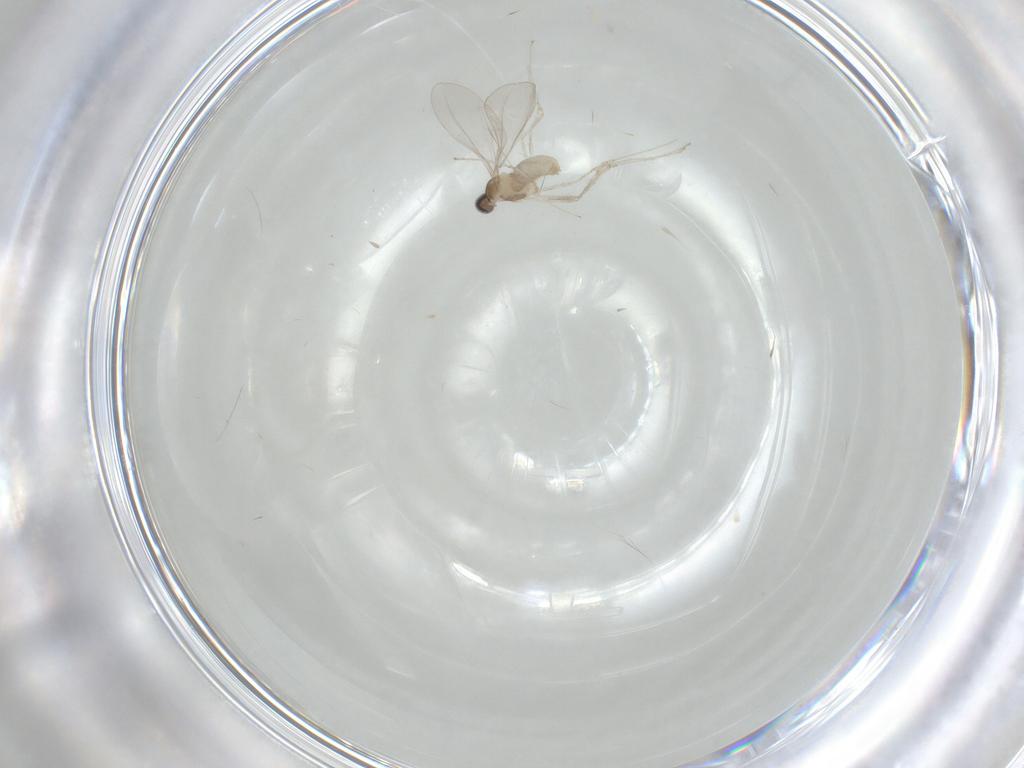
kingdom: Animalia
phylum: Arthropoda
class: Insecta
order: Diptera
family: Cecidomyiidae
